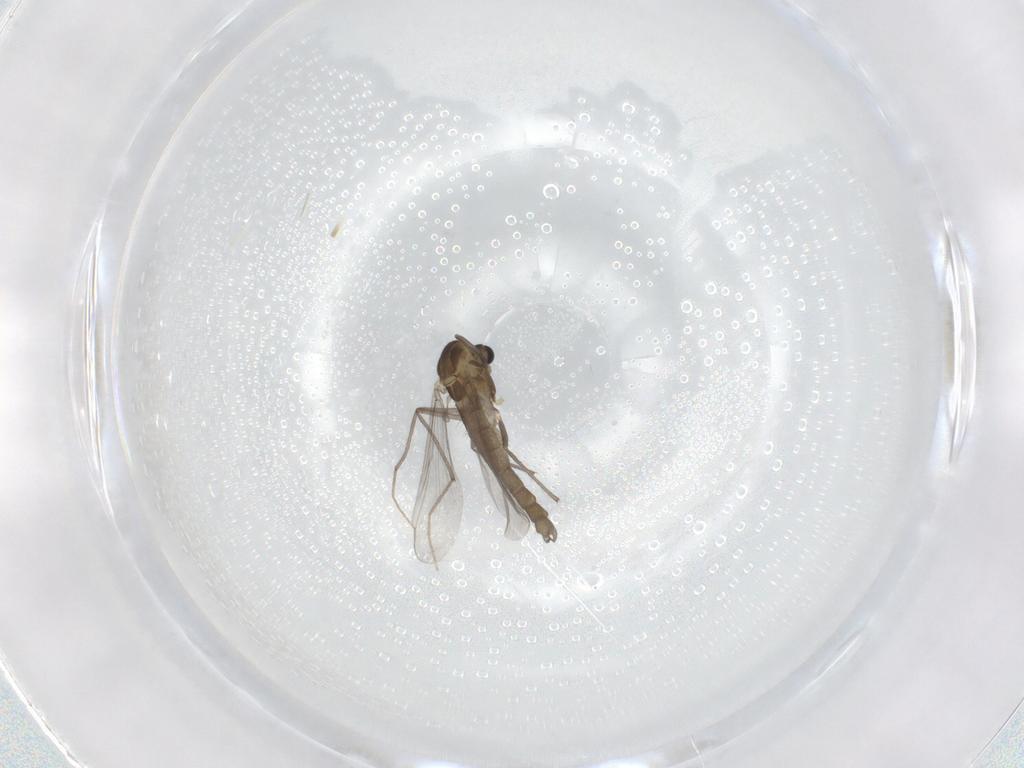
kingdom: Animalia
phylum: Arthropoda
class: Insecta
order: Diptera
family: Chironomidae
